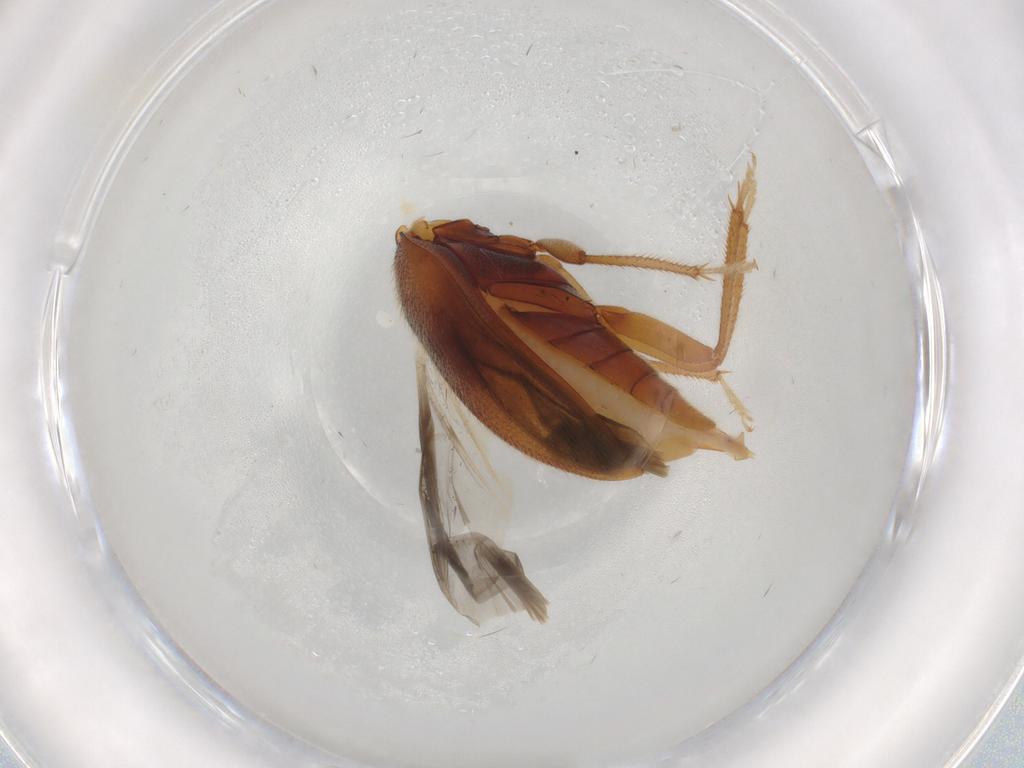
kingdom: Animalia
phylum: Arthropoda
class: Insecta
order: Coleoptera
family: Ptilodactylidae
